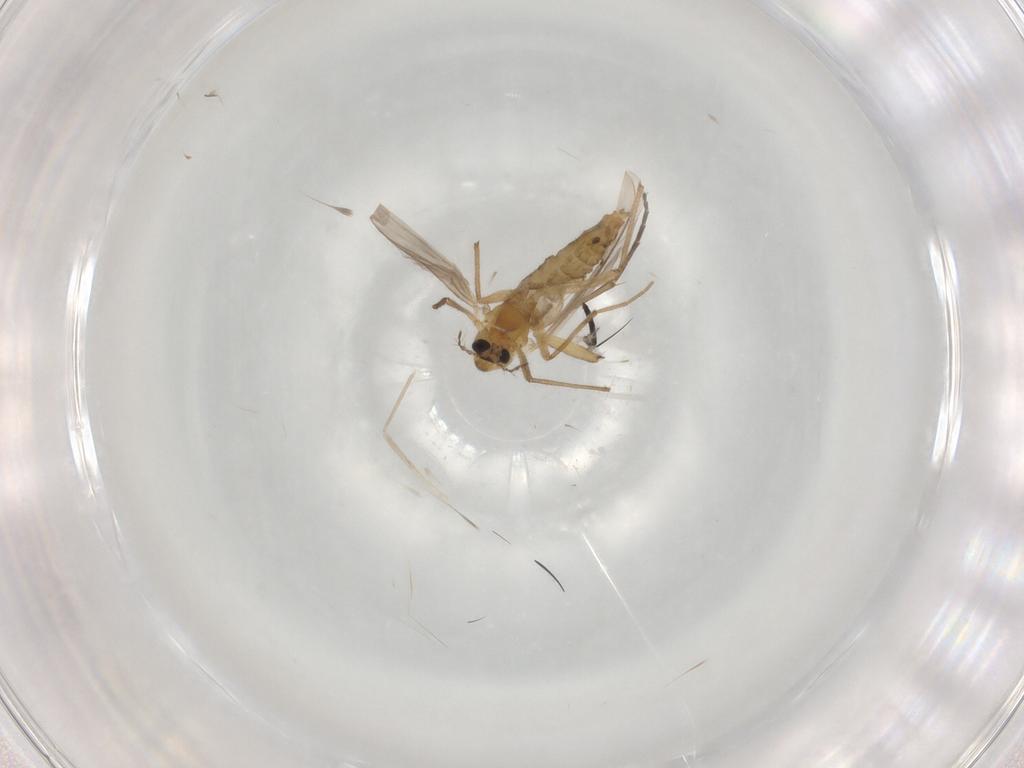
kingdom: Animalia
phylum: Arthropoda
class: Insecta
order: Diptera
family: Chironomidae
